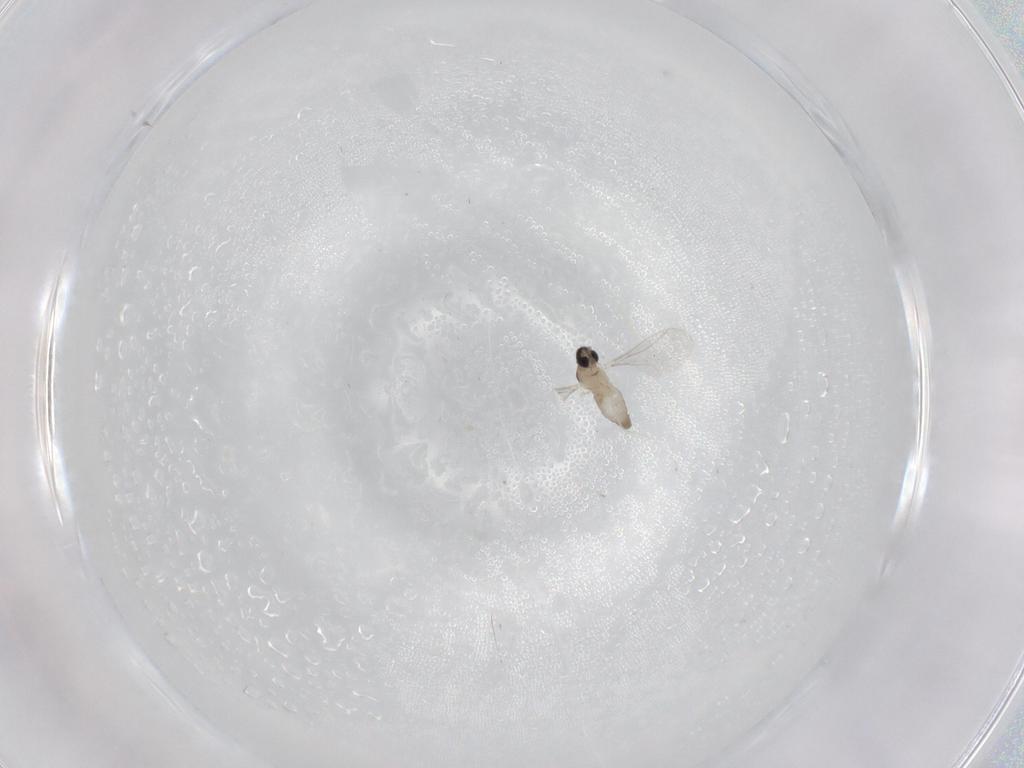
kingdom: Animalia
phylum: Arthropoda
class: Insecta
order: Diptera
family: Cecidomyiidae
